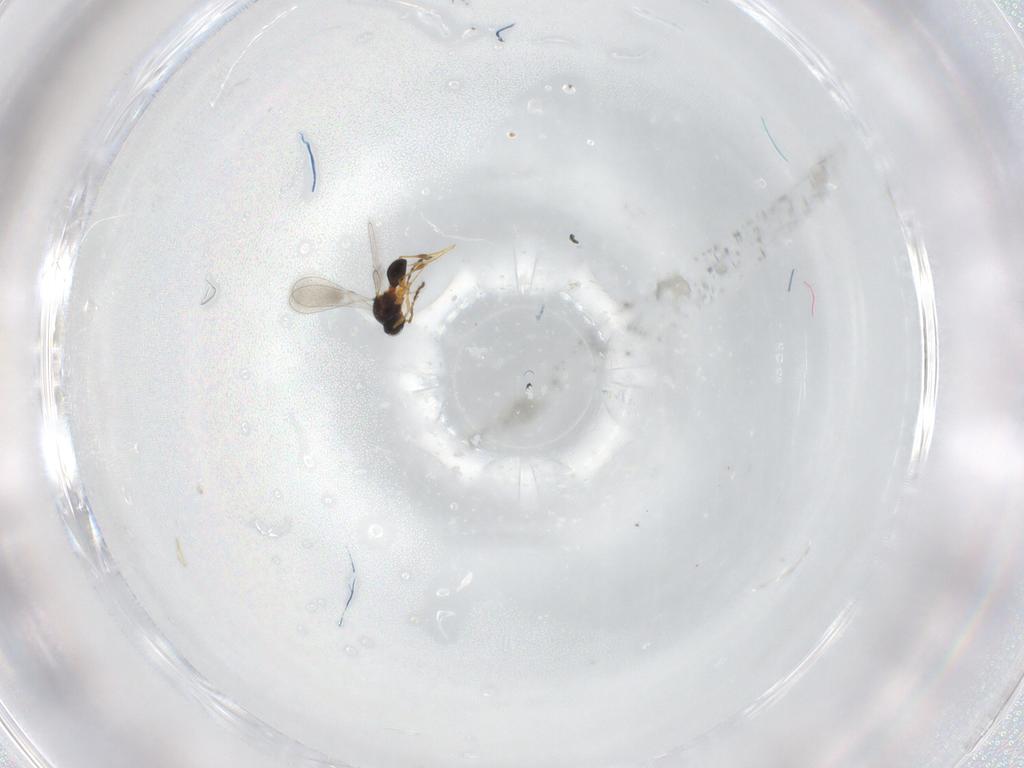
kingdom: Animalia
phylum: Arthropoda
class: Insecta
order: Hymenoptera
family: Platygastridae
